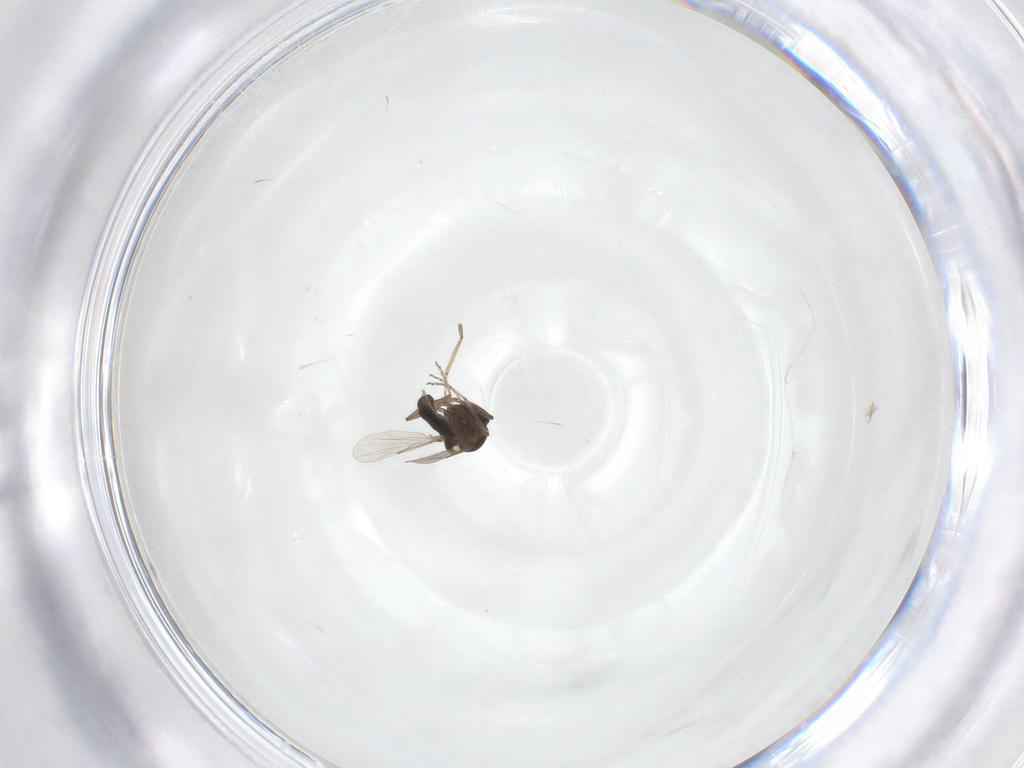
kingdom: Animalia
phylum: Arthropoda
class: Insecta
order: Diptera
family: Ceratopogonidae
